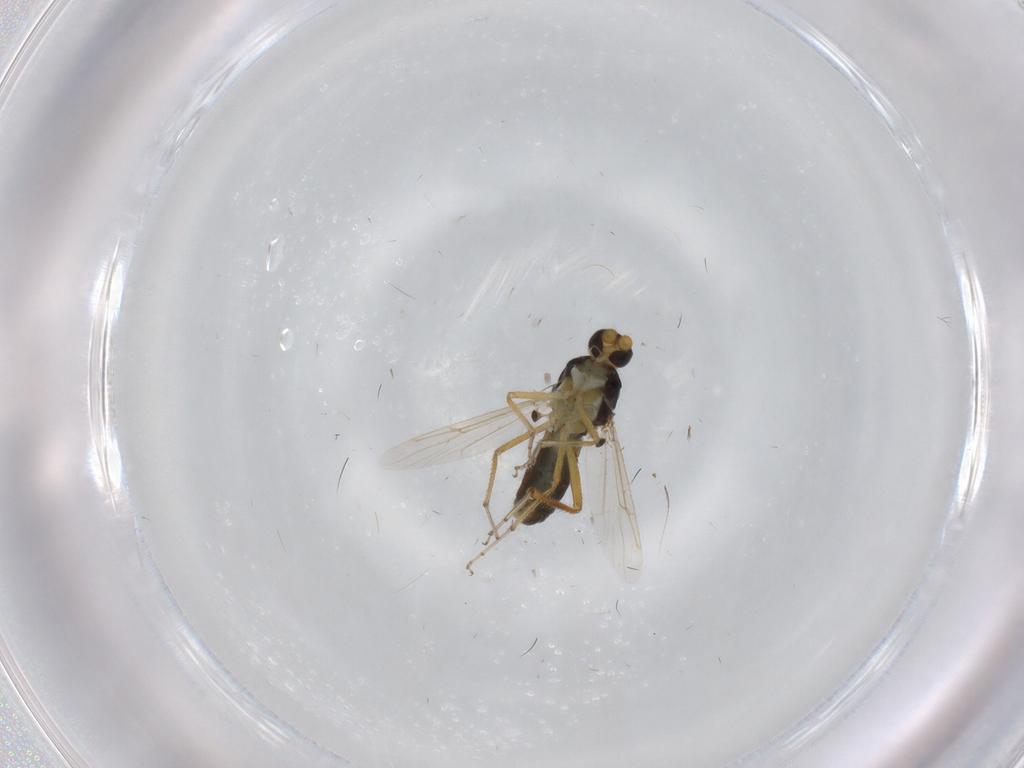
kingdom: Animalia
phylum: Arthropoda
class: Insecta
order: Diptera
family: Ceratopogonidae
